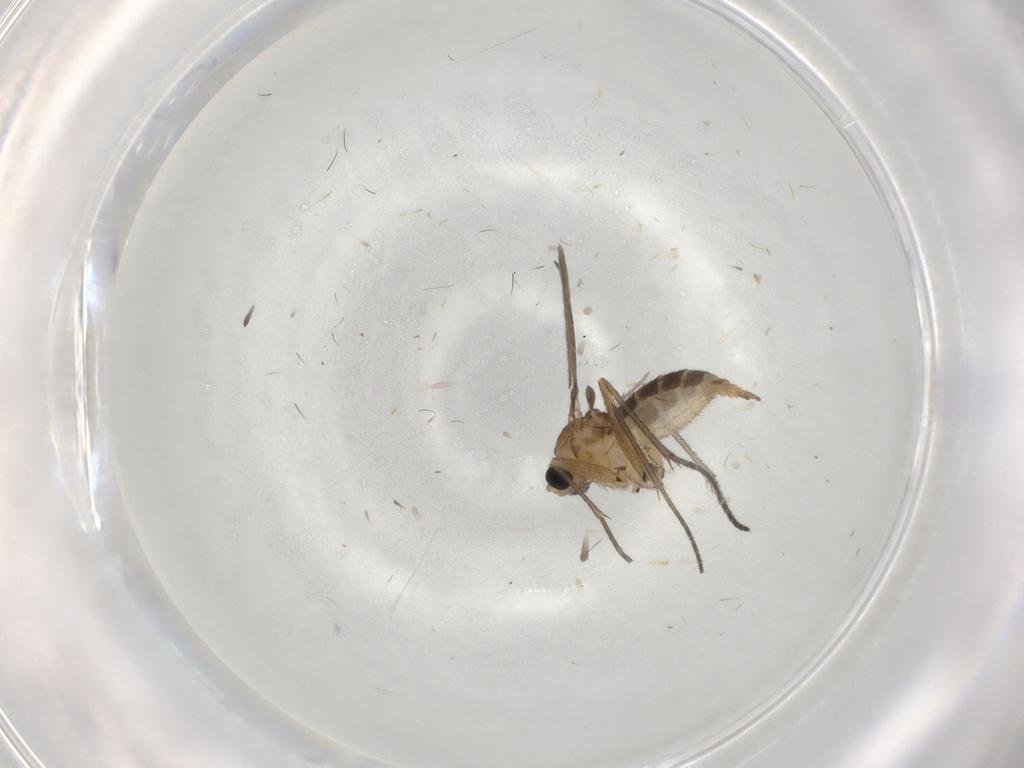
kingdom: Animalia
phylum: Arthropoda
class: Insecta
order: Diptera
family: Sciaridae
